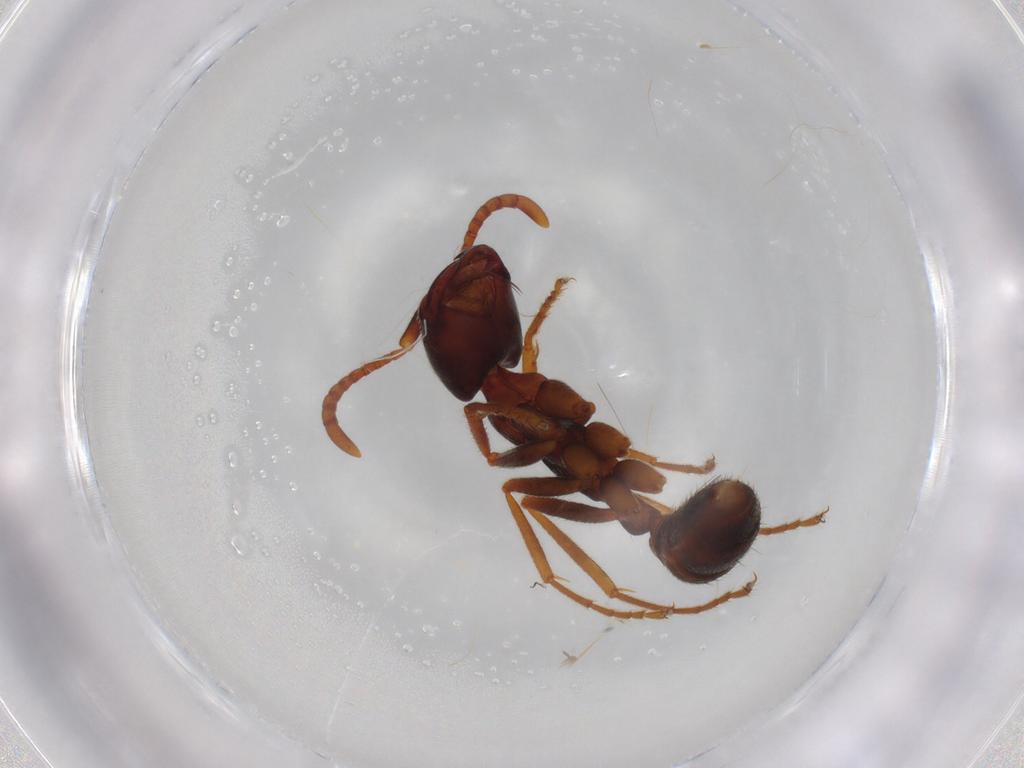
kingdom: Animalia
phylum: Arthropoda
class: Insecta
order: Hymenoptera
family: Formicidae
